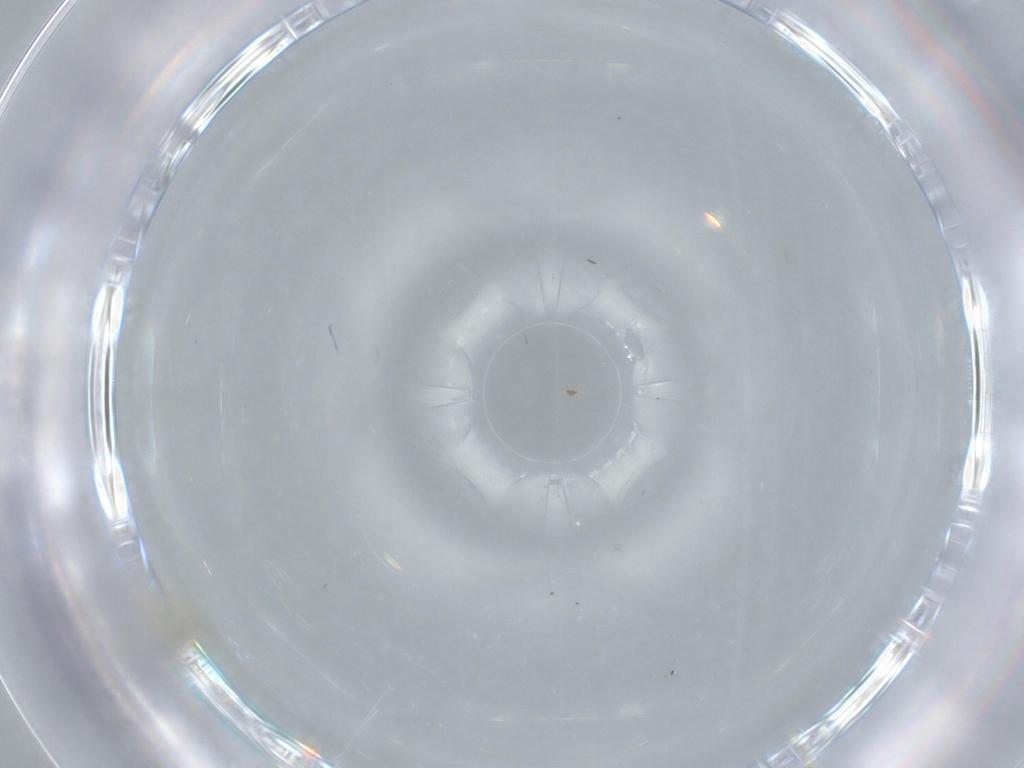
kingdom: Animalia
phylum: Arthropoda
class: Insecta
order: Hemiptera
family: Aleyrodidae
